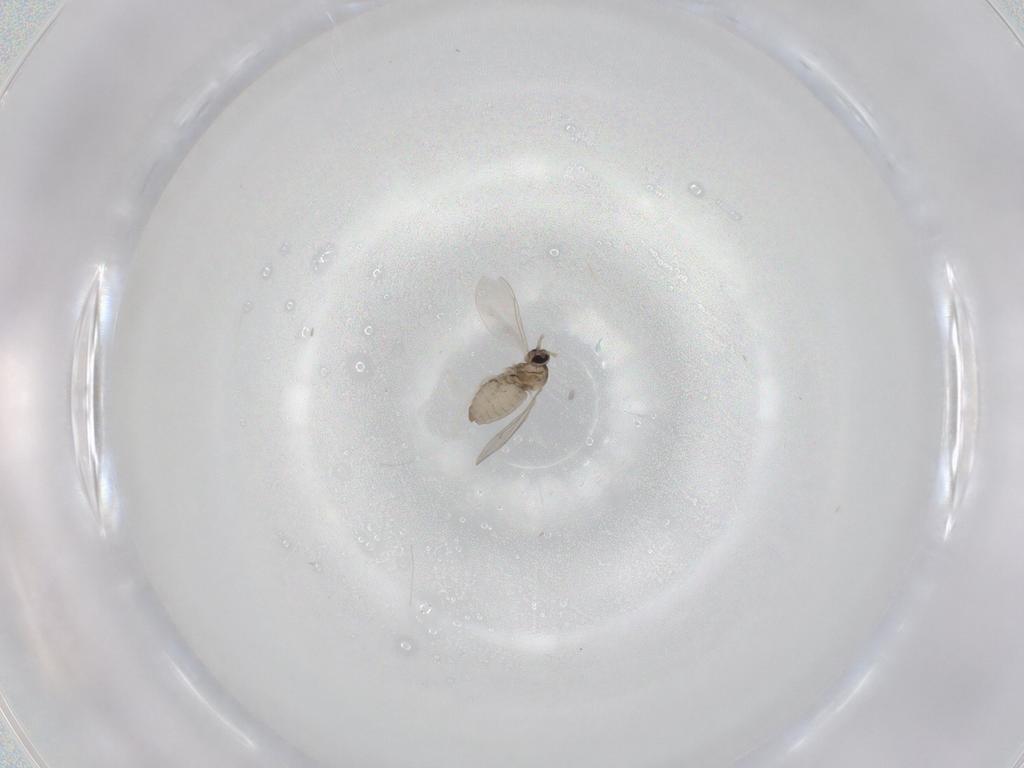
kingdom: Animalia
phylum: Arthropoda
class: Insecta
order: Diptera
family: Cecidomyiidae
